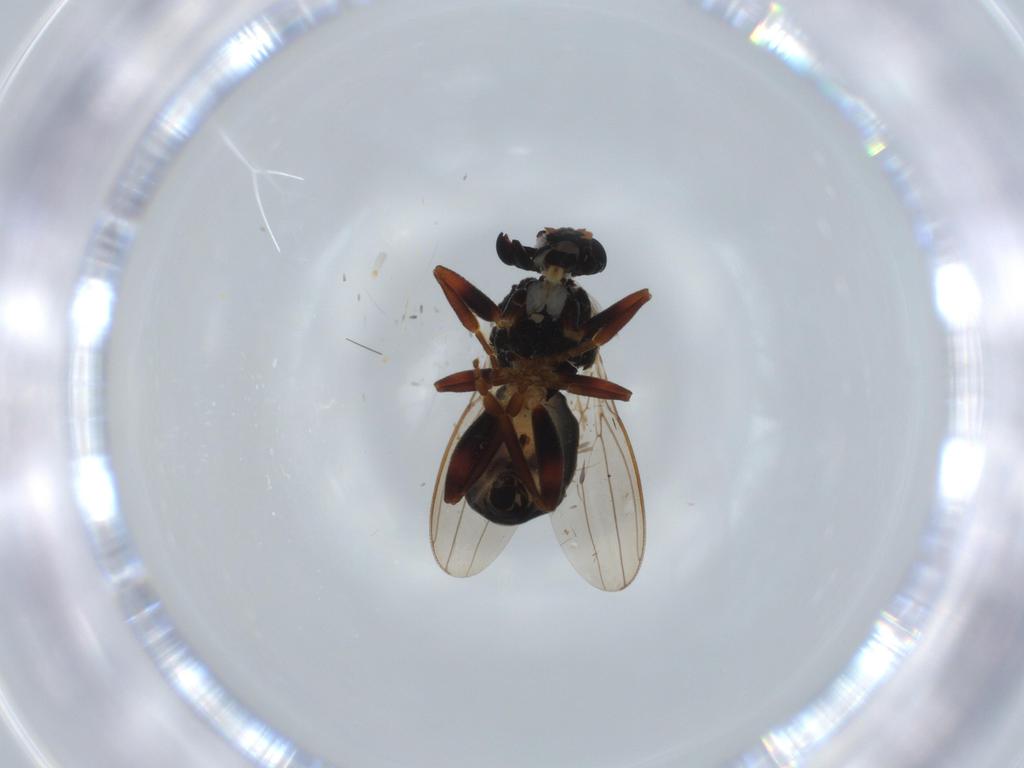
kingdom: Animalia
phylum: Arthropoda
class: Insecta
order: Diptera
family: Sphaeroceridae
